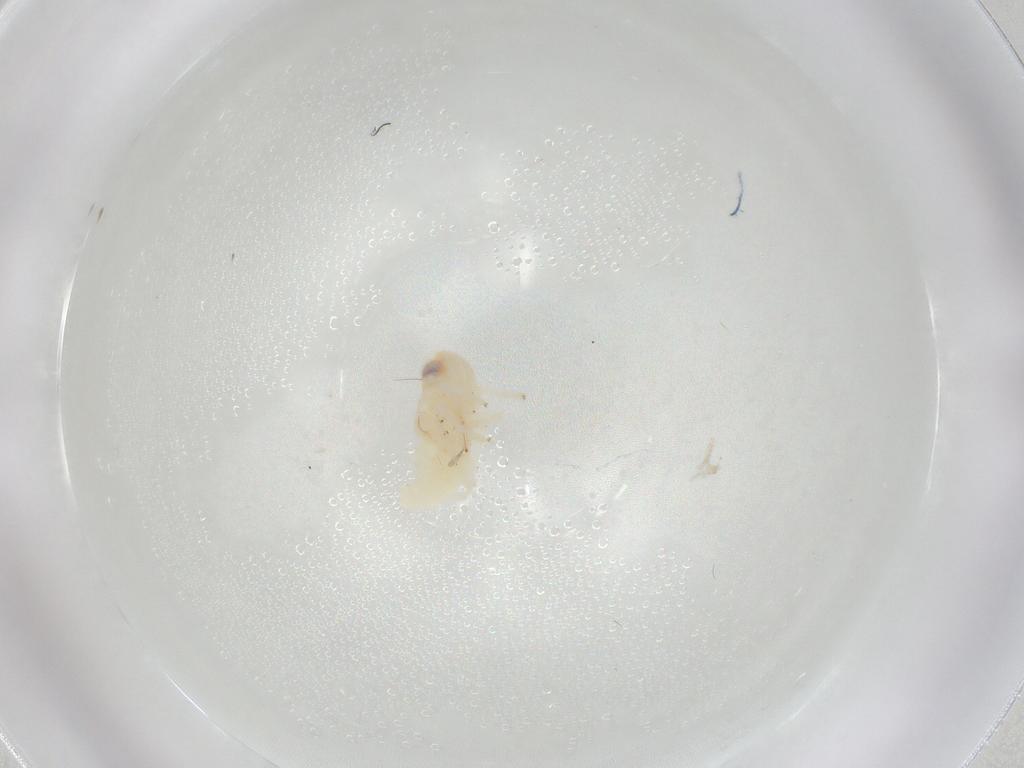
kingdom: Animalia
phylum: Arthropoda
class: Insecta
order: Hemiptera
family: Nogodinidae
